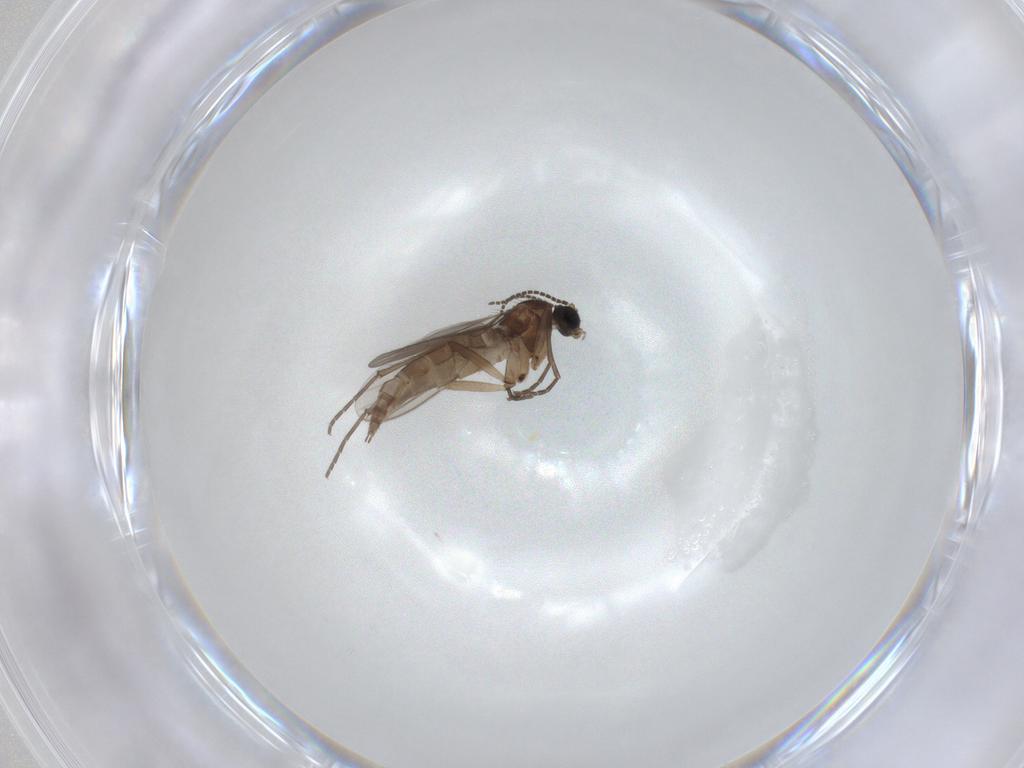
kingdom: Animalia
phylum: Arthropoda
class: Insecta
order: Diptera
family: Sciaridae
